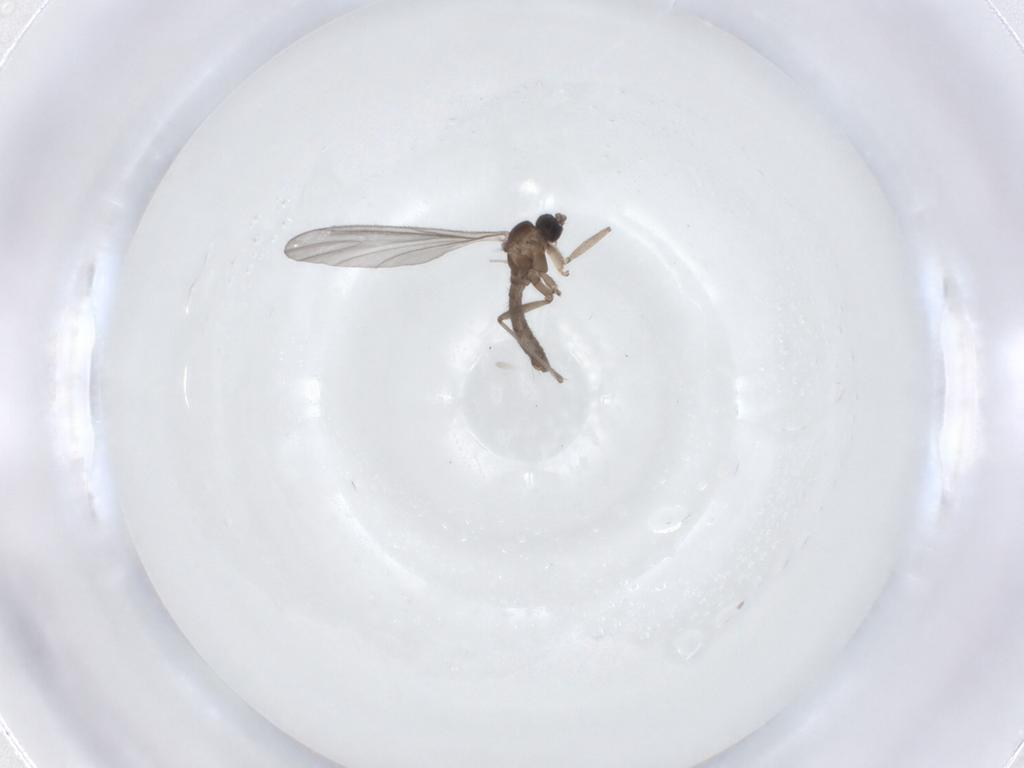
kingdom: Animalia
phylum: Arthropoda
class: Insecta
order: Diptera
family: Sciaridae
